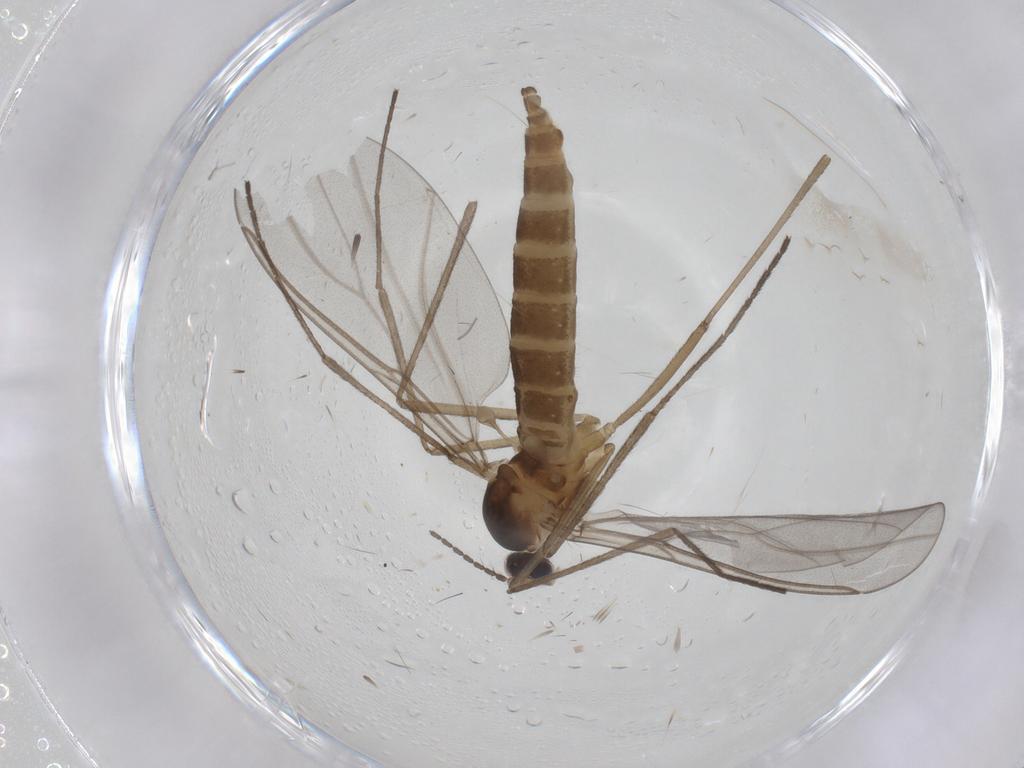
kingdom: Animalia
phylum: Arthropoda
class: Insecta
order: Diptera
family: Cecidomyiidae
